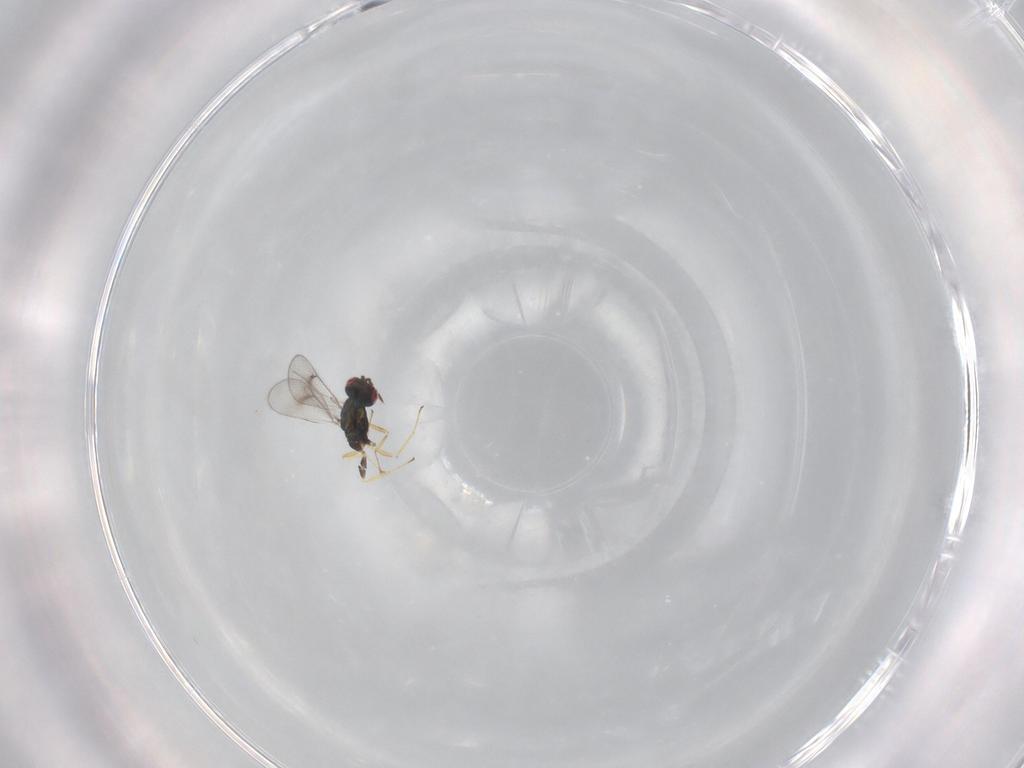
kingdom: Animalia
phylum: Arthropoda
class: Insecta
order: Hymenoptera
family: Eulophidae
